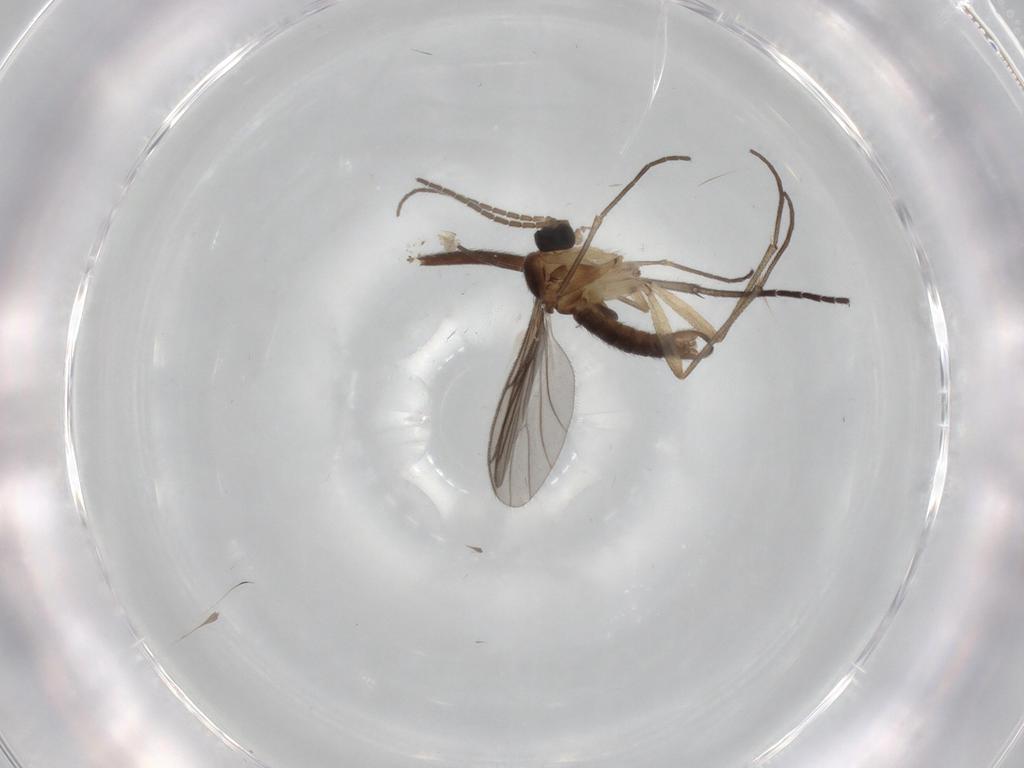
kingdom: Animalia
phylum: Arthropoda
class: Insecta
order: Diptera
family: Sciaridae
